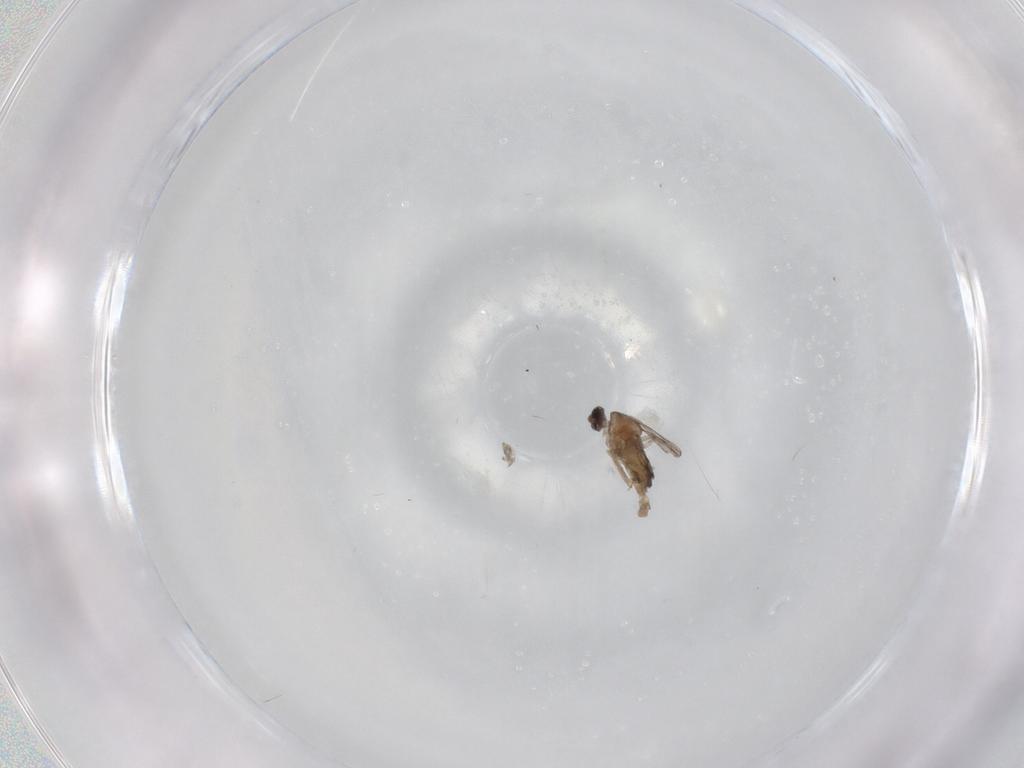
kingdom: Animalia
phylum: Arthropoda
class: Insecta
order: Diptera
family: Cecidomyiidae
